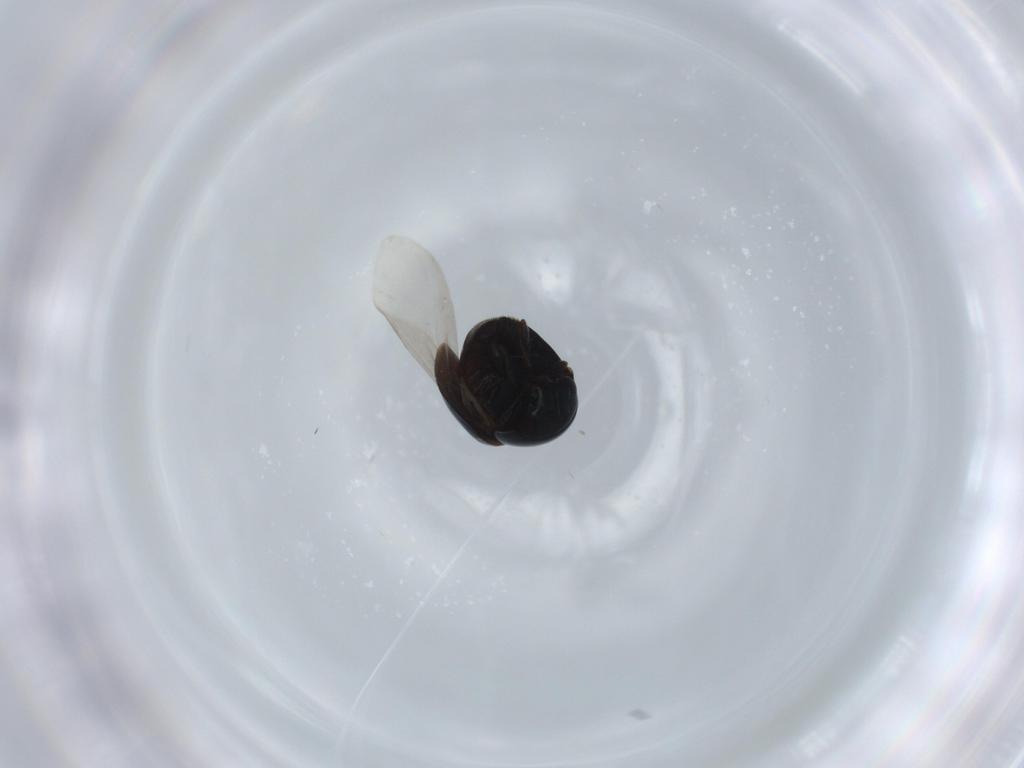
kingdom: Animalia
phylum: Arthropoda
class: Insecta
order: Coleoptera
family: Cybocephalidae
